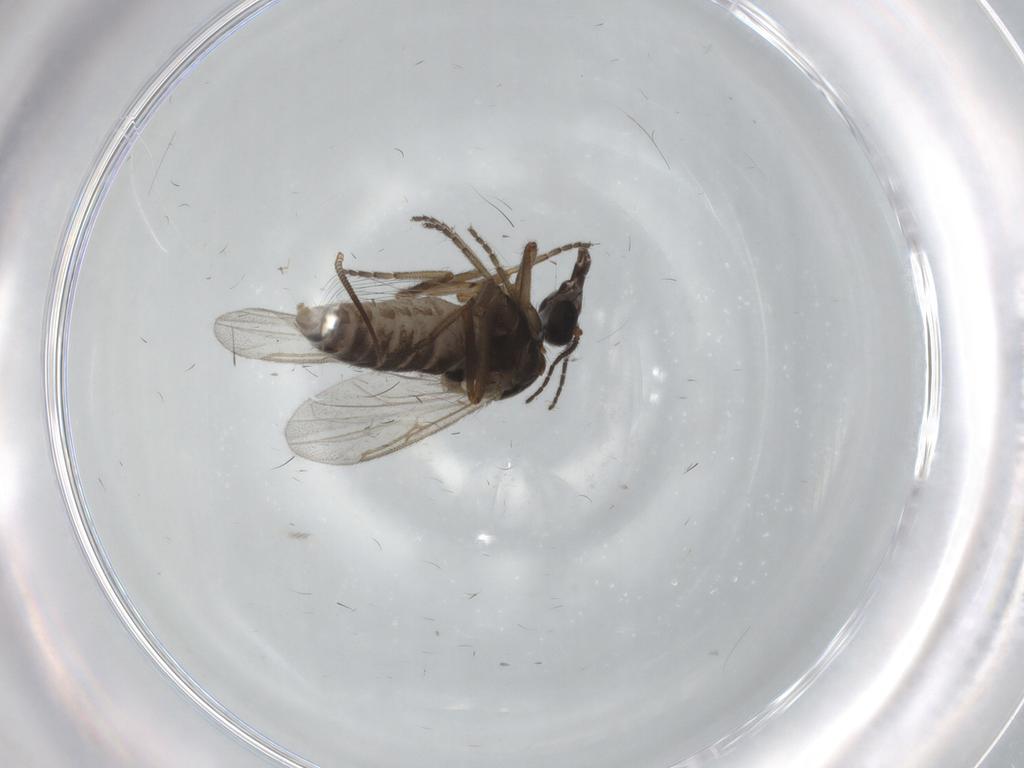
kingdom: Animalia
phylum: Arthropoda
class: Insecta
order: Diptera
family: Ceratopogonidae
